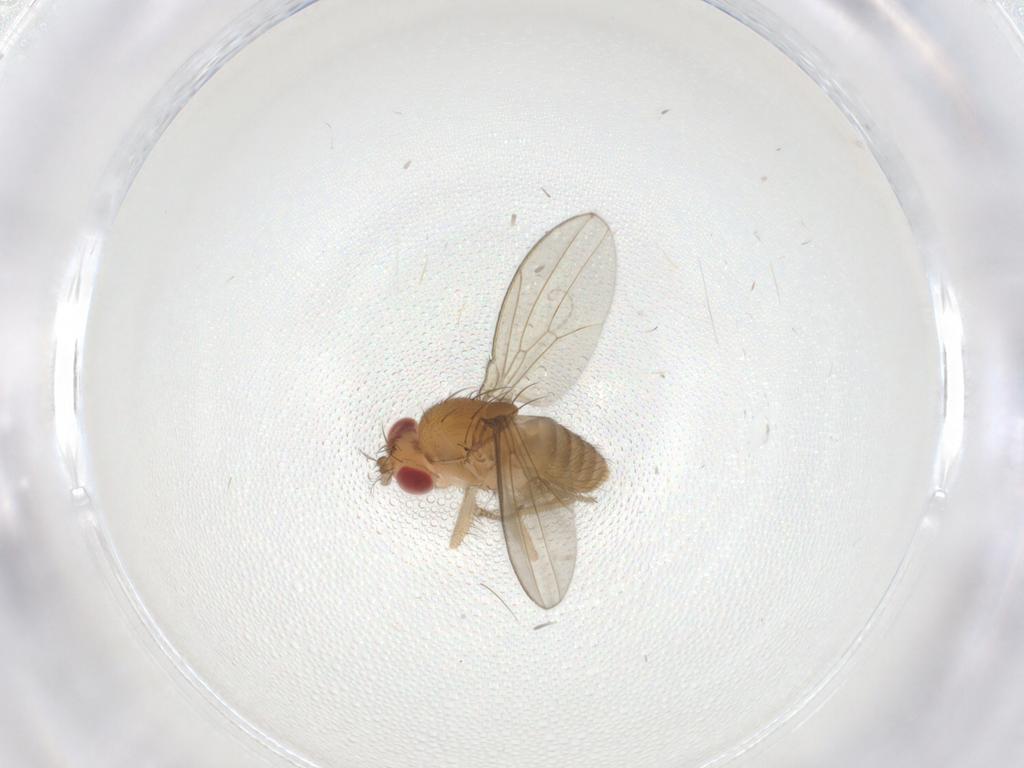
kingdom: Animalia
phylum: Arthropoda
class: Insecta
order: Diptera
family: Drosophilidae
